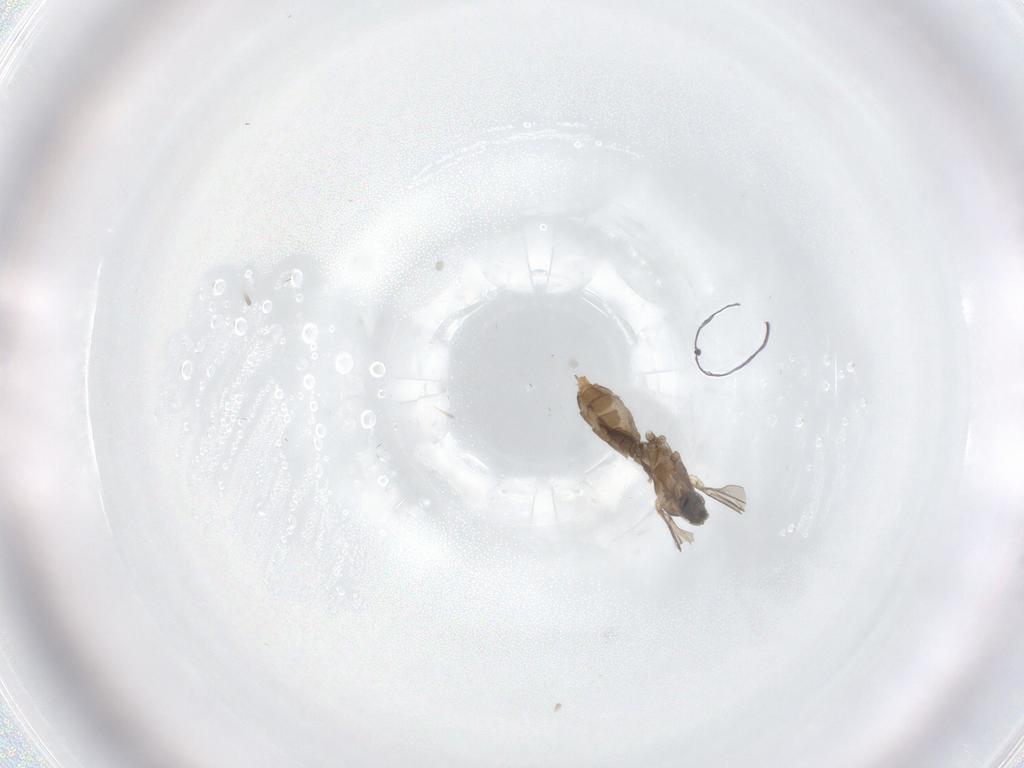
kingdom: Animalia
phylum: Arthropoda
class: Insecta
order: Diptera
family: Cecidomyiidae
